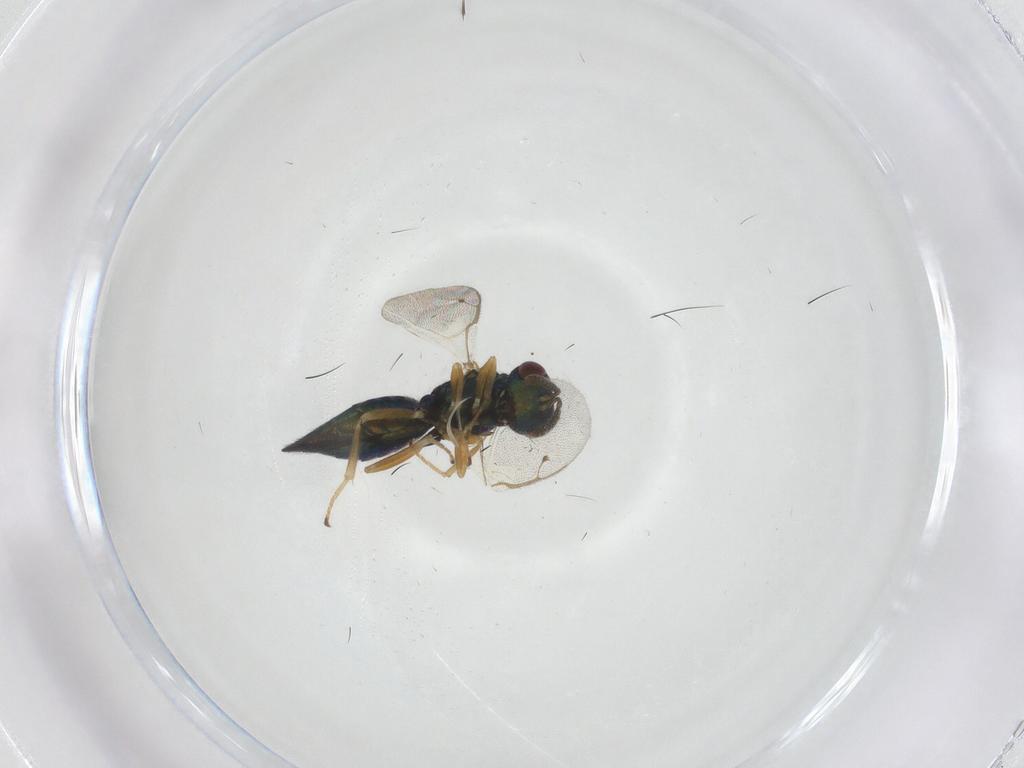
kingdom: Animalia
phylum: Arthropoda
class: Insecta
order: Hymenoptera
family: Pteromalidae
